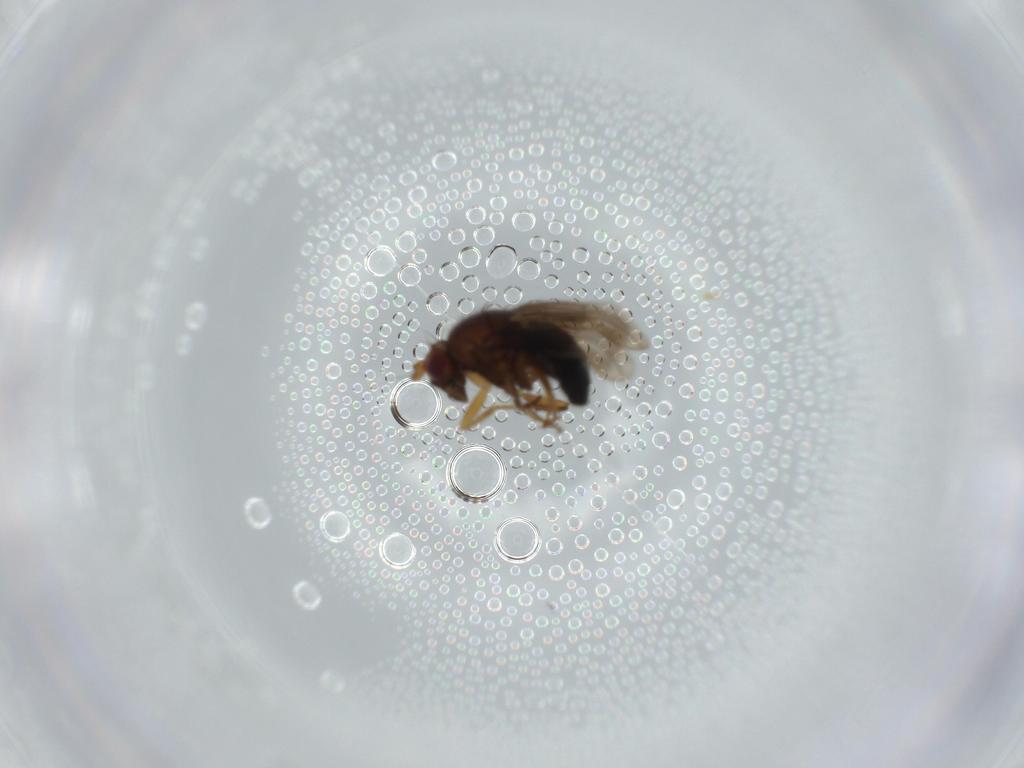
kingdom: Animalia
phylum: Arthropoda
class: Insecta
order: Diptera
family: Sphaeroceridae
